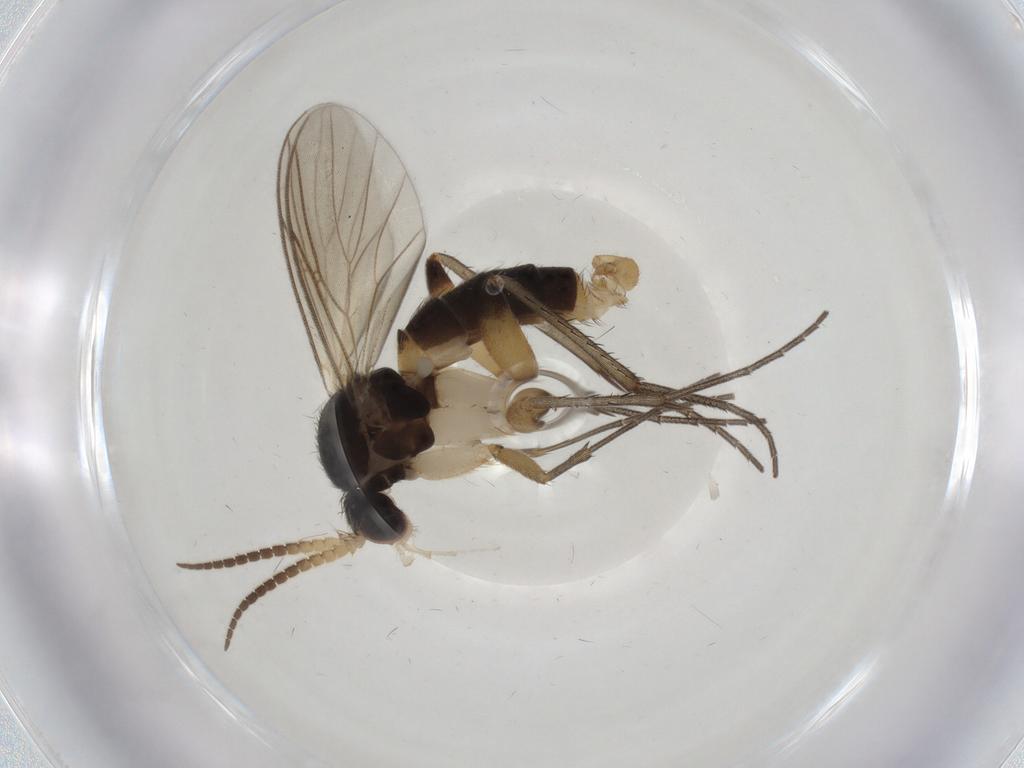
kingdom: Animalia
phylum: Arthropoda
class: Insecta
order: Diptera
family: Mycetophilidae
